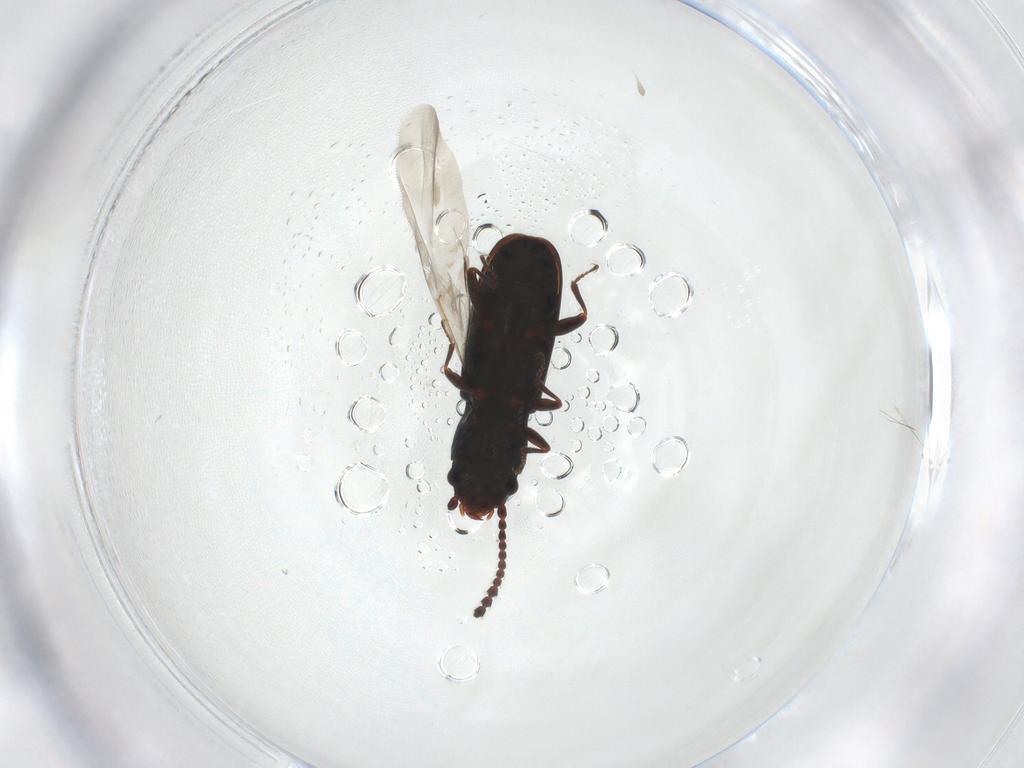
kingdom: Animalia
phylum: Arthropoda
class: Insecta
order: Coleoptera
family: Laemophloeidae
